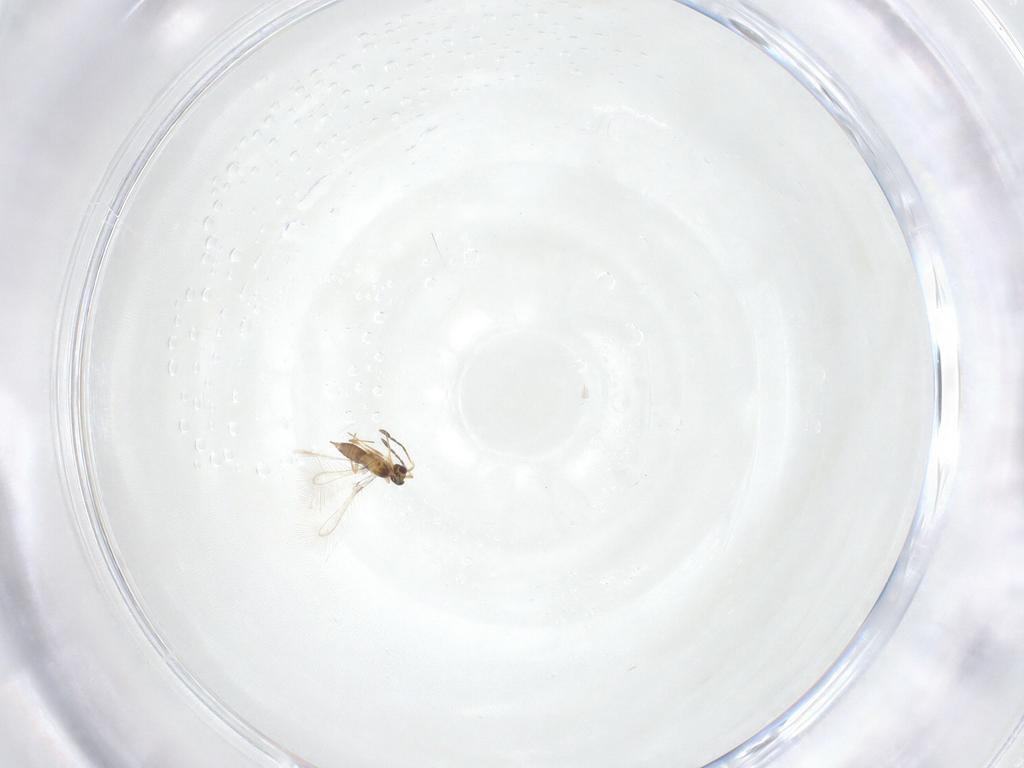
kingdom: Animalia
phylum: Arthropoda
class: Insecta
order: Hymenoptera
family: Mymaridae
